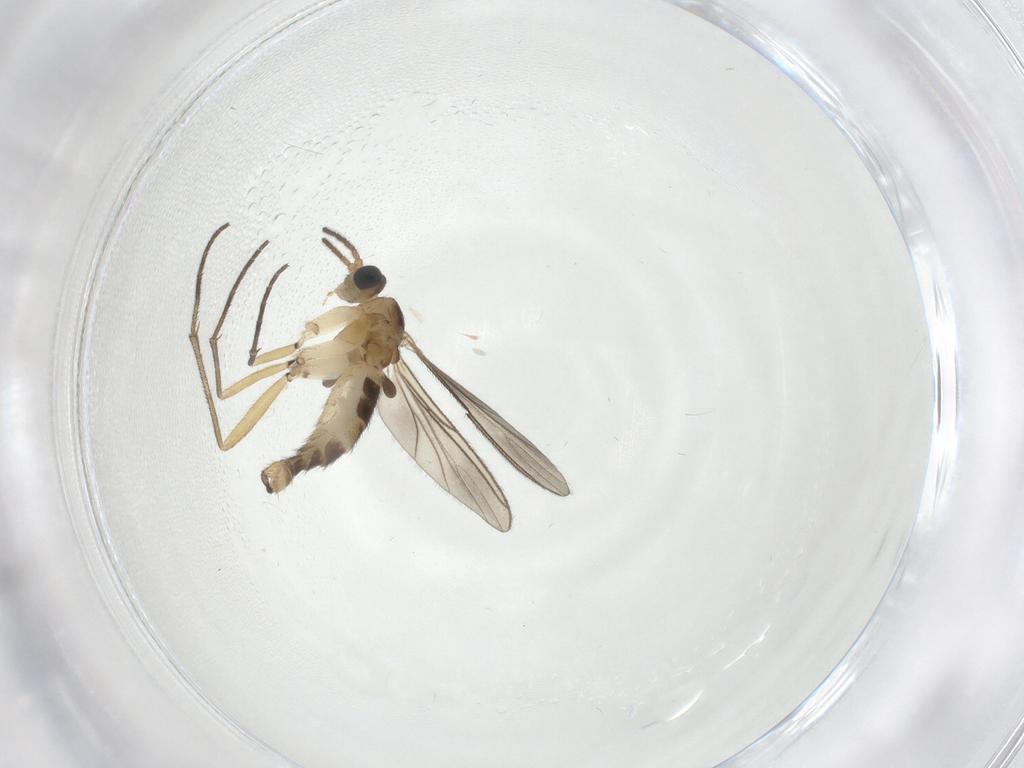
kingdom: Animalia
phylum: Arthropoda
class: Insecta
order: Diptera
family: Sciaridae
